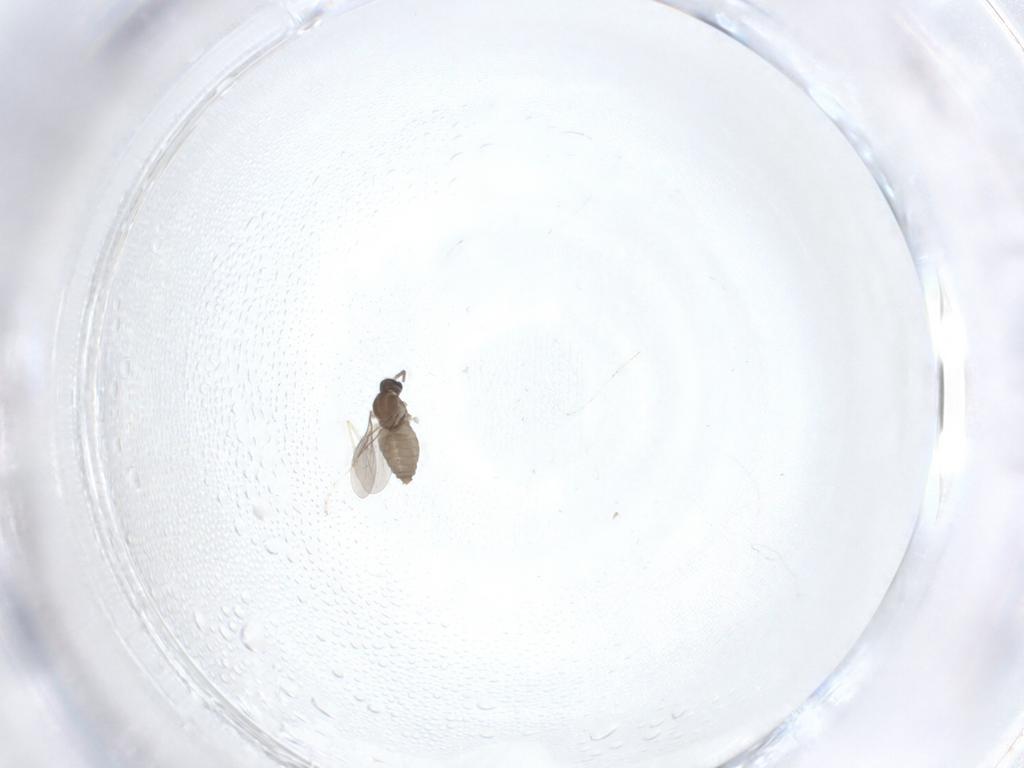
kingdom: Animalia
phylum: Arthropoda
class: Insecta
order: Diptera
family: Cecidomyiidae
